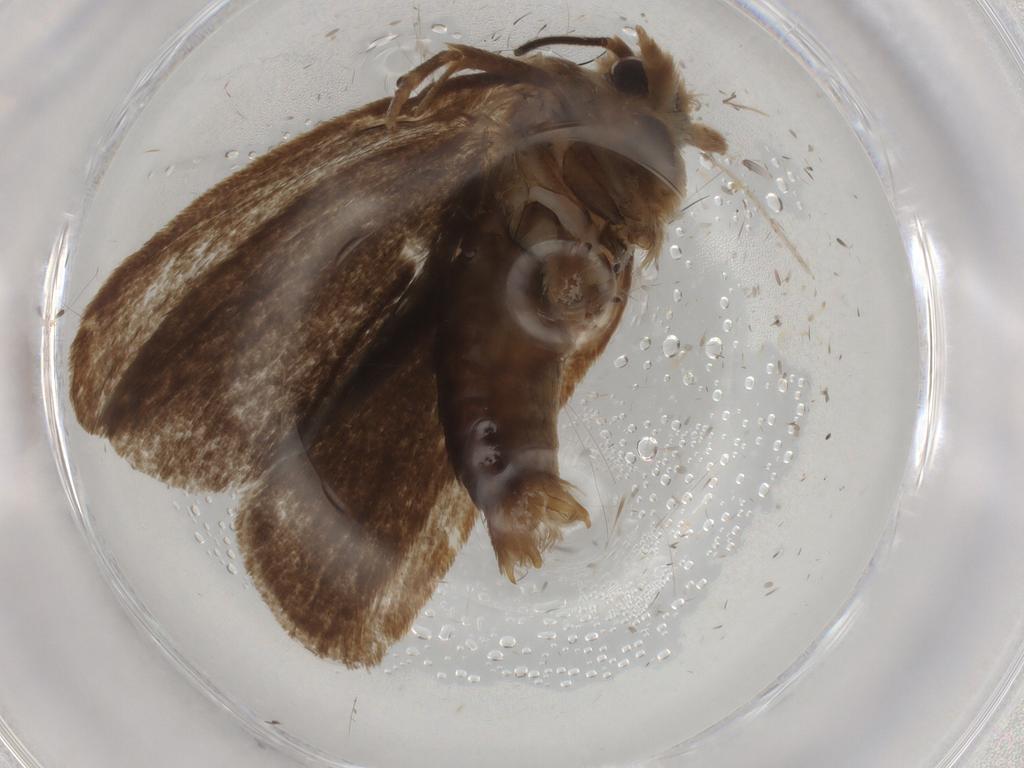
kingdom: Animalia
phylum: Arthropoda
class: Insecta
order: Lepidoptera
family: Tineidae
